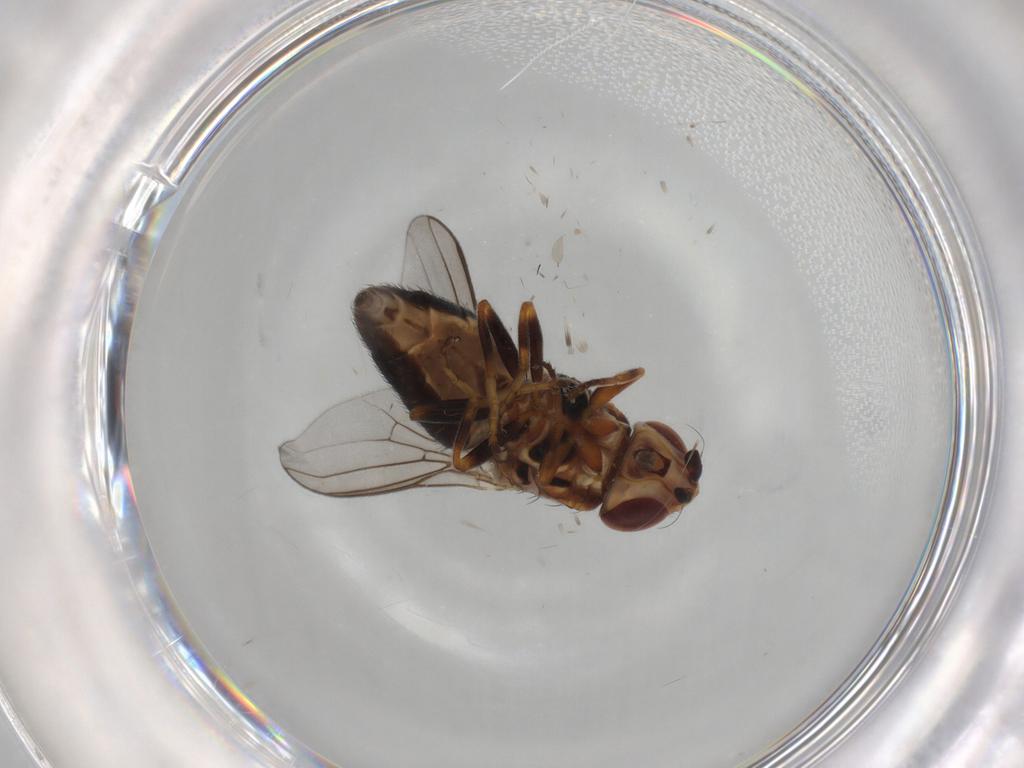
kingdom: Animalia
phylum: Arthropoda
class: Insecta
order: Diptera
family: Chloropidae
